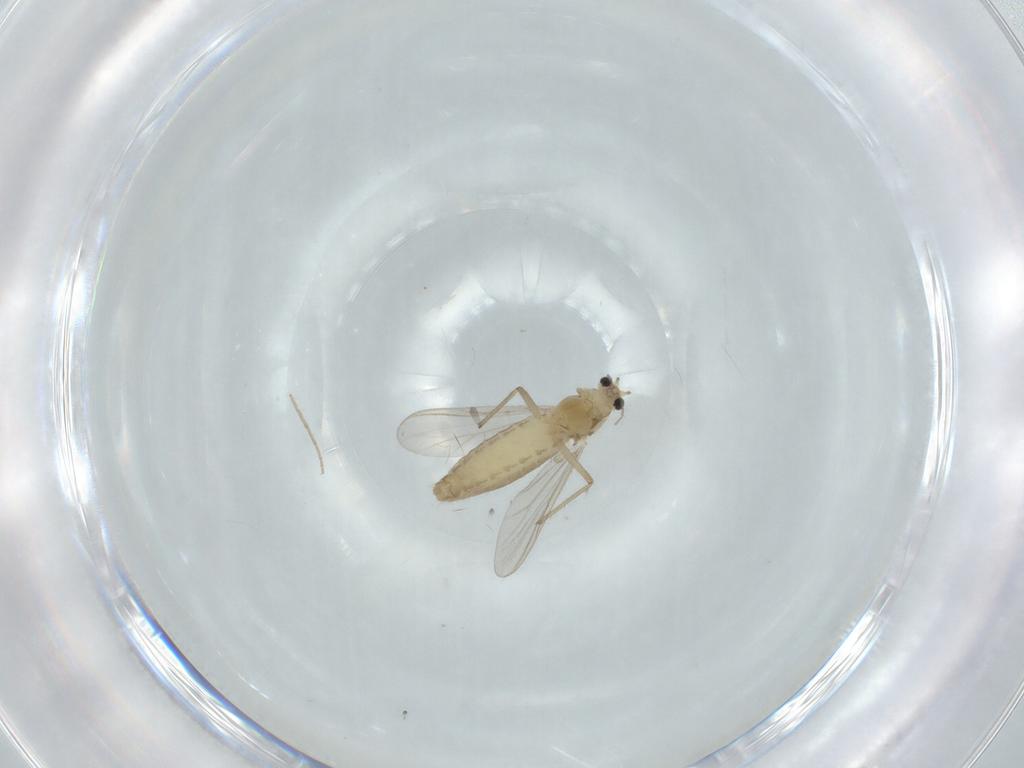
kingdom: Animalia
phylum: Arthropoda
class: Insecta
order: Diptera
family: Chironomidae
